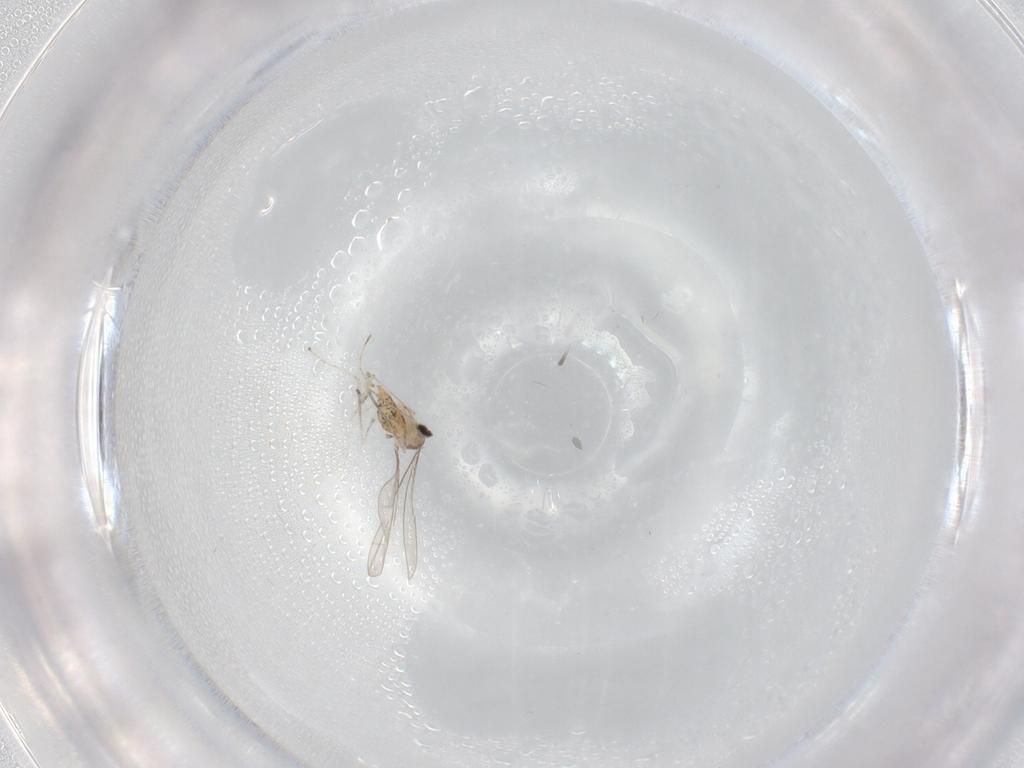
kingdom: Animalia
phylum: Arthropoda
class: Insecta
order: Diptera
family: Cecidomyiidae
